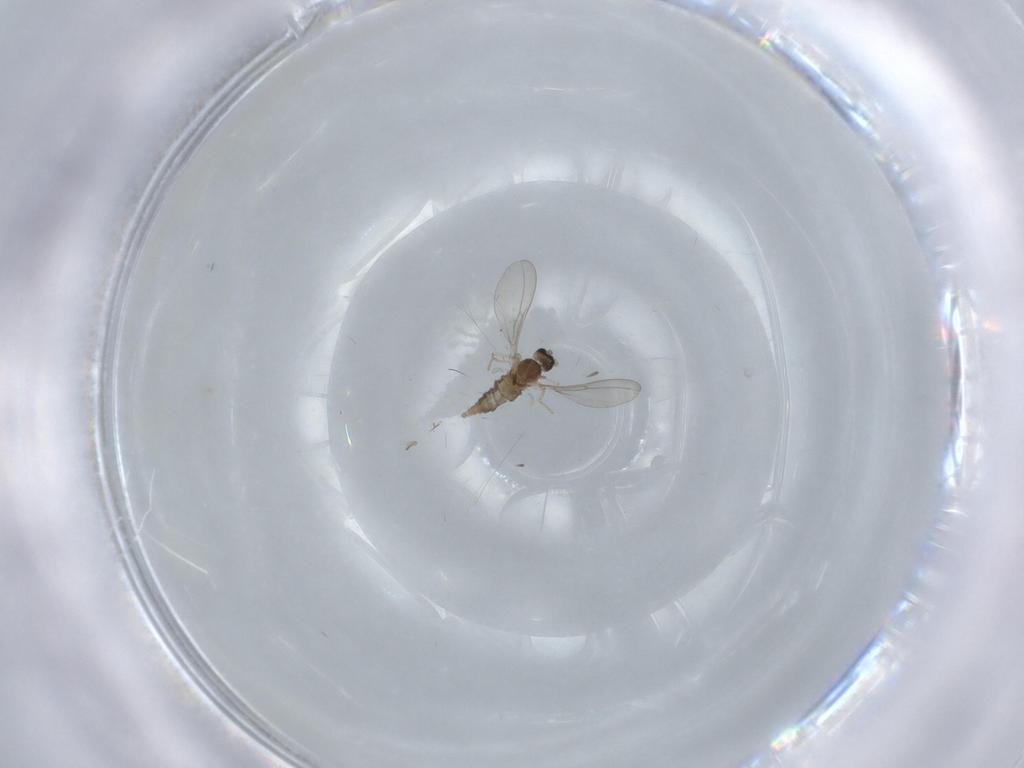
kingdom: Animalia
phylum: Arthropoda
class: Insecta
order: Diptera
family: Sciaridae
